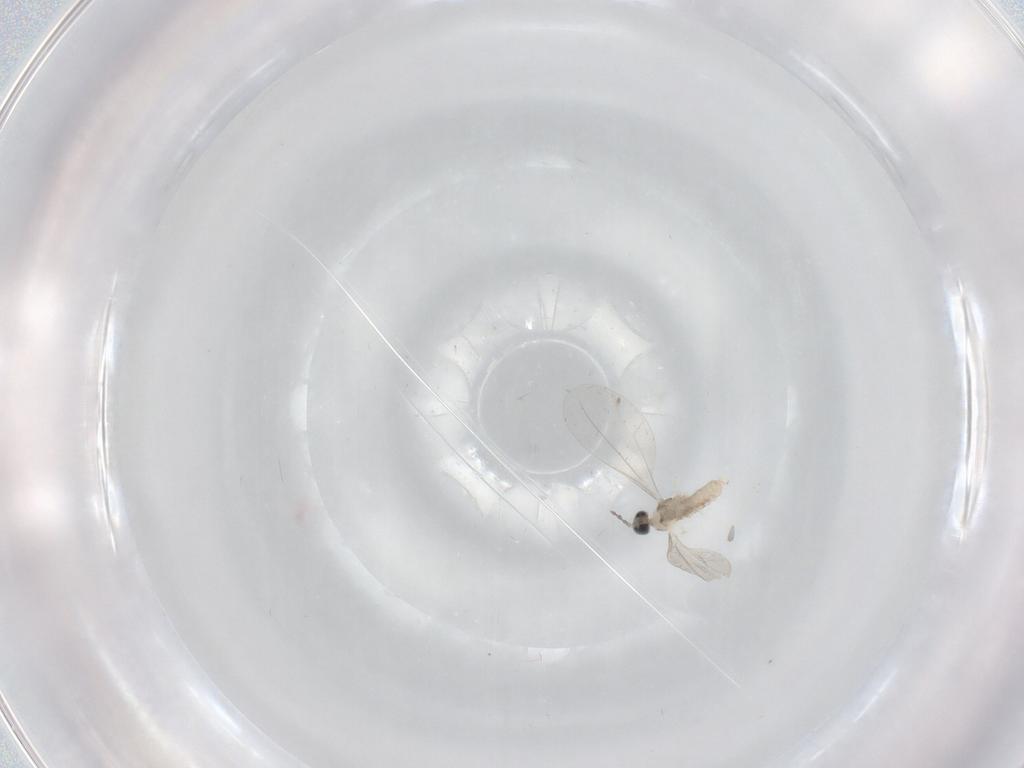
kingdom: Animalia
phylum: Arthropoda
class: Insecta
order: Diptera
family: Cecidomyiidae
